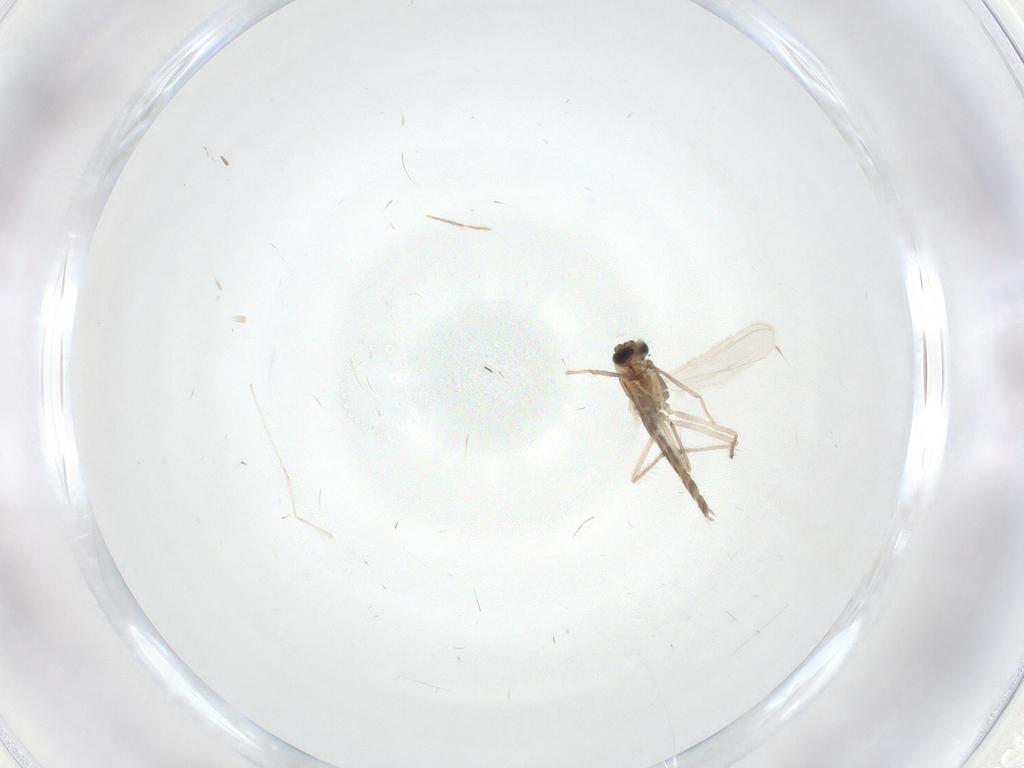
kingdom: Animalia
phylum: Arthropoda
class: Insecta
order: Diptera
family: Chironomidae
